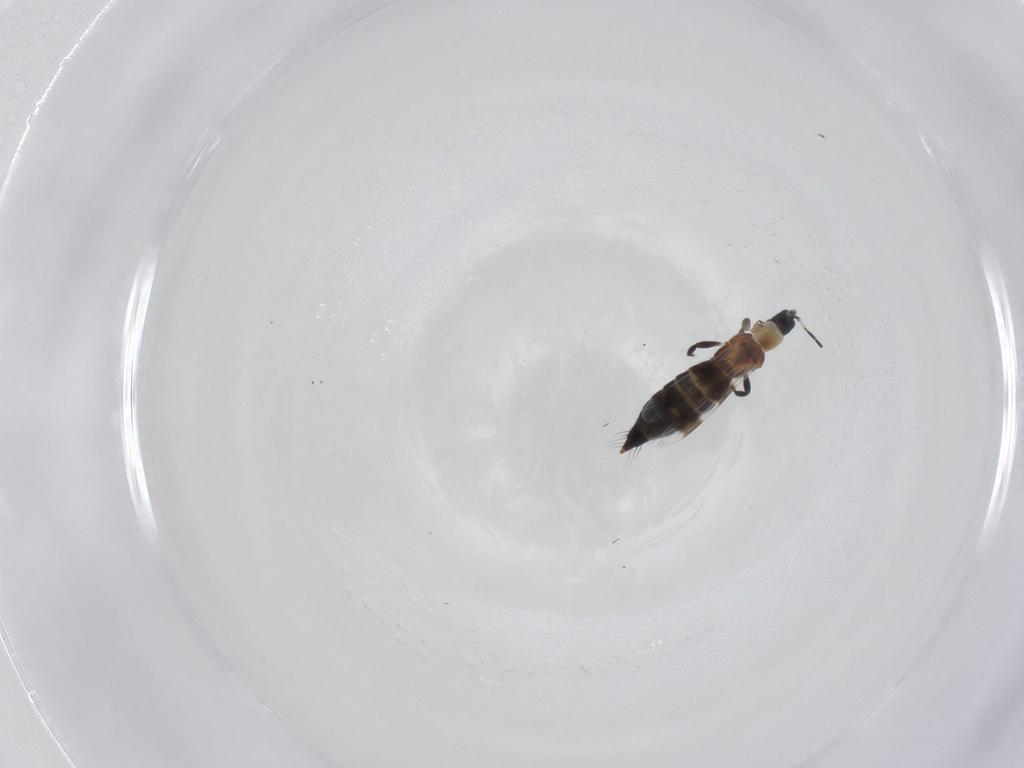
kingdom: Animalia
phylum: Arthropoda
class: Insecta
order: Thysanoptera
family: Aeolothripidae
